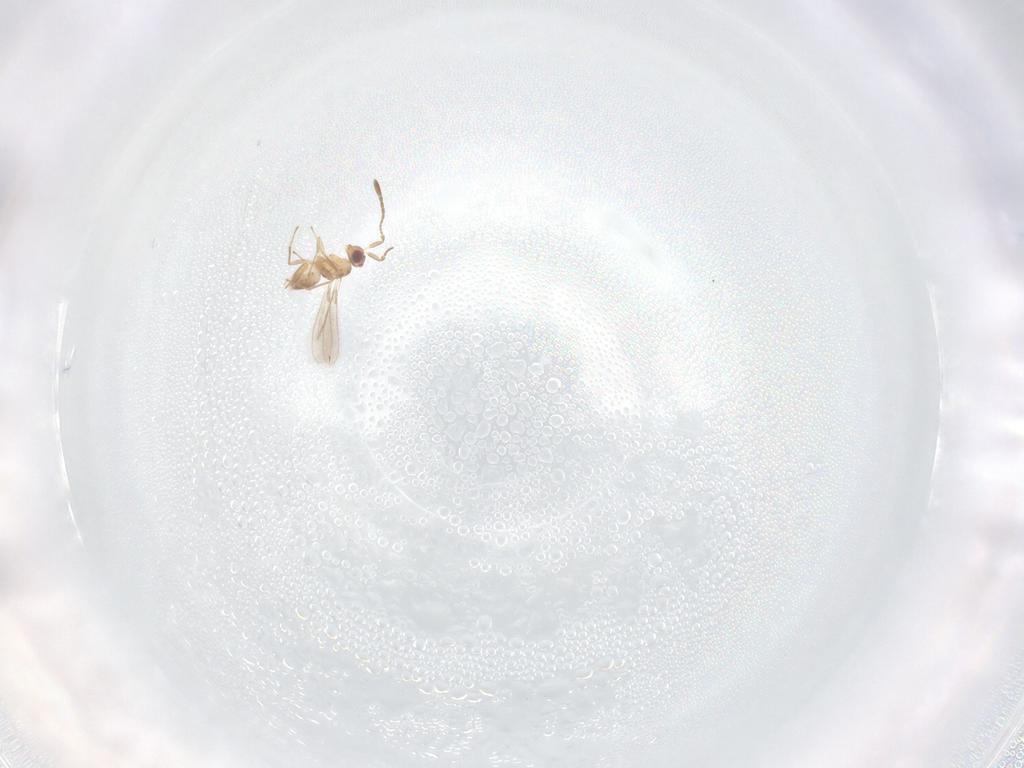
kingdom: Animalia
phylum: Arthropoda
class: Insecta
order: Hymenoptera
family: Mymaridae
